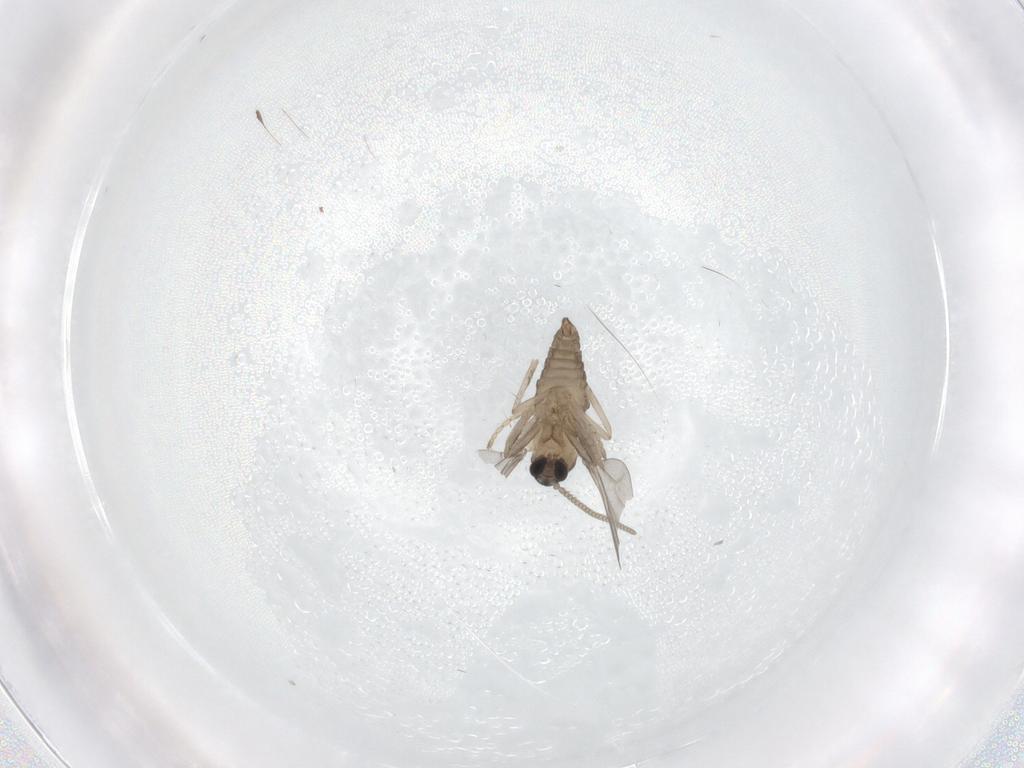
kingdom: Animalia
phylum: Arthropoda
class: Insecta
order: Diptera
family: Cecidomyiidae
